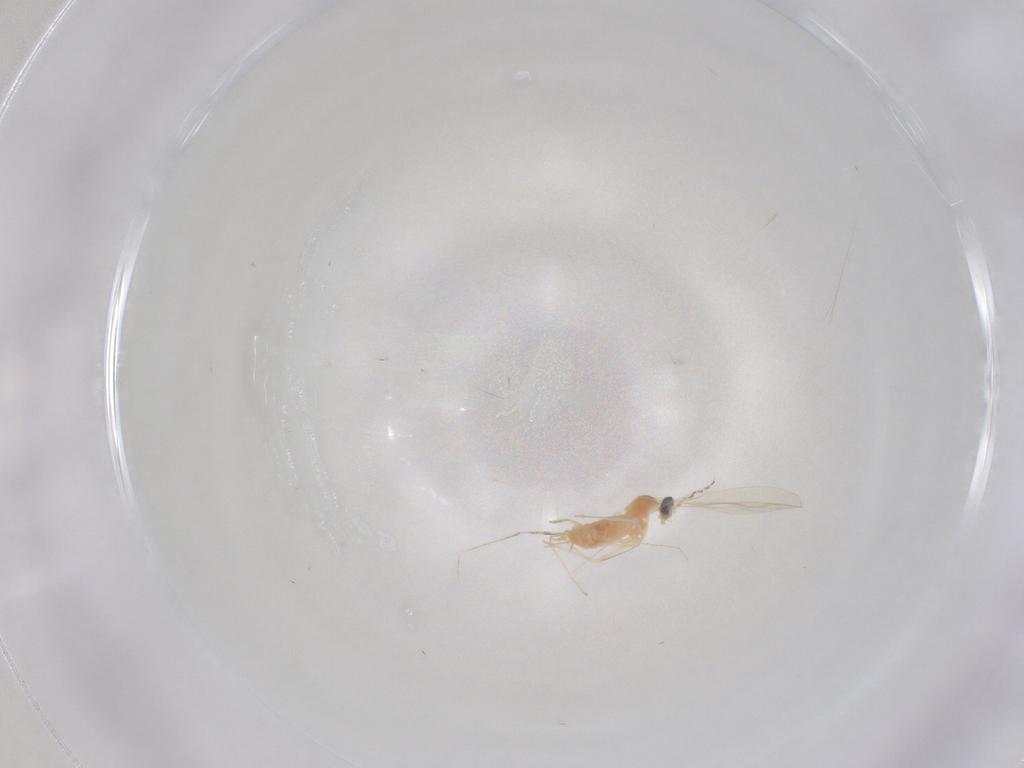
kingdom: Animalia
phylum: Arthropoda
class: Insecta
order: Diptera
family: Cecidomyiidae
